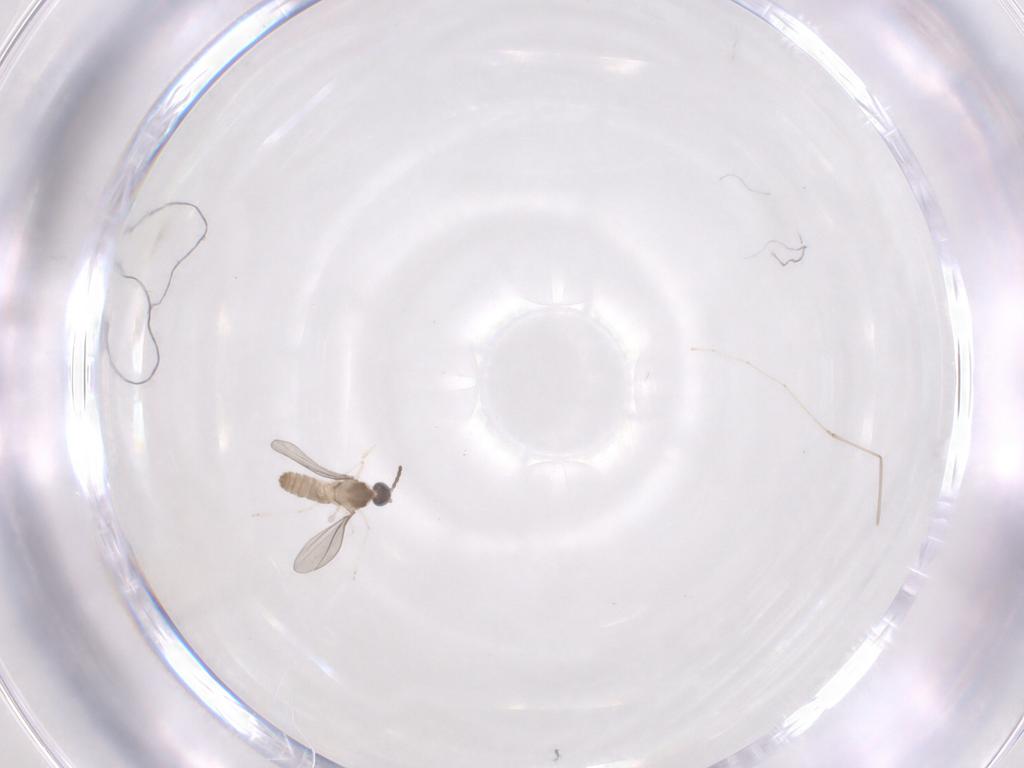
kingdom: Animalia
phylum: Arthropoda
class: Insecta
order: Diptera
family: Cecidomyiidae
